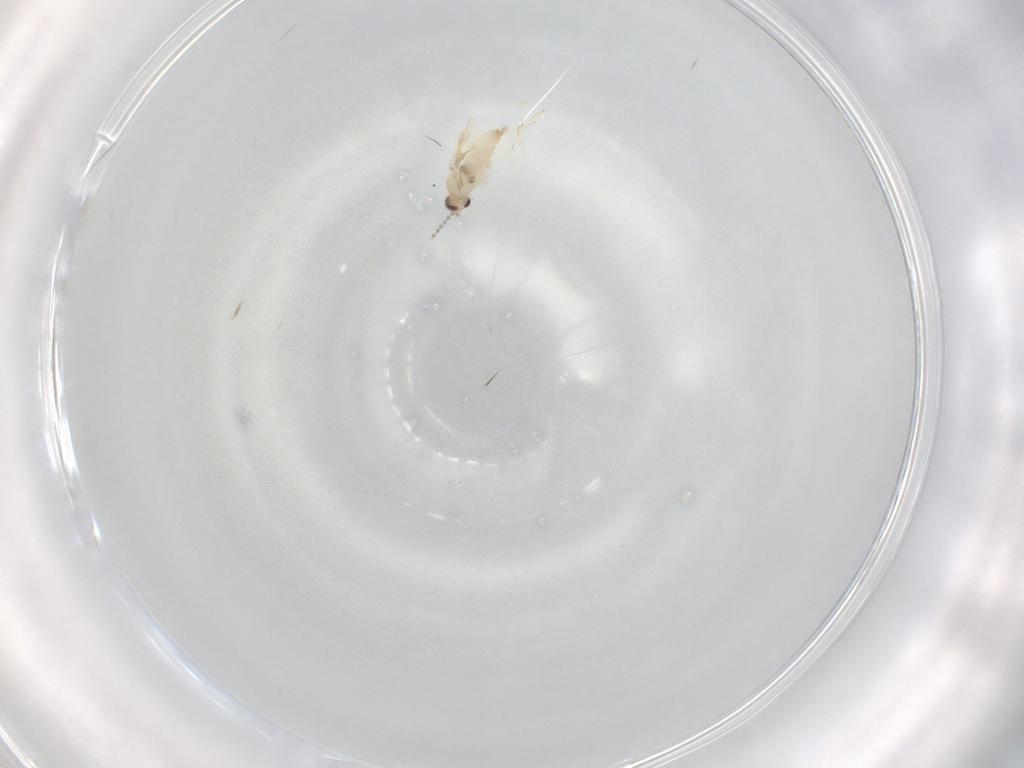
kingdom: Animalia
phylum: Arthropoda
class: Insecta
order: Diptera
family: Cecidomyiidae
